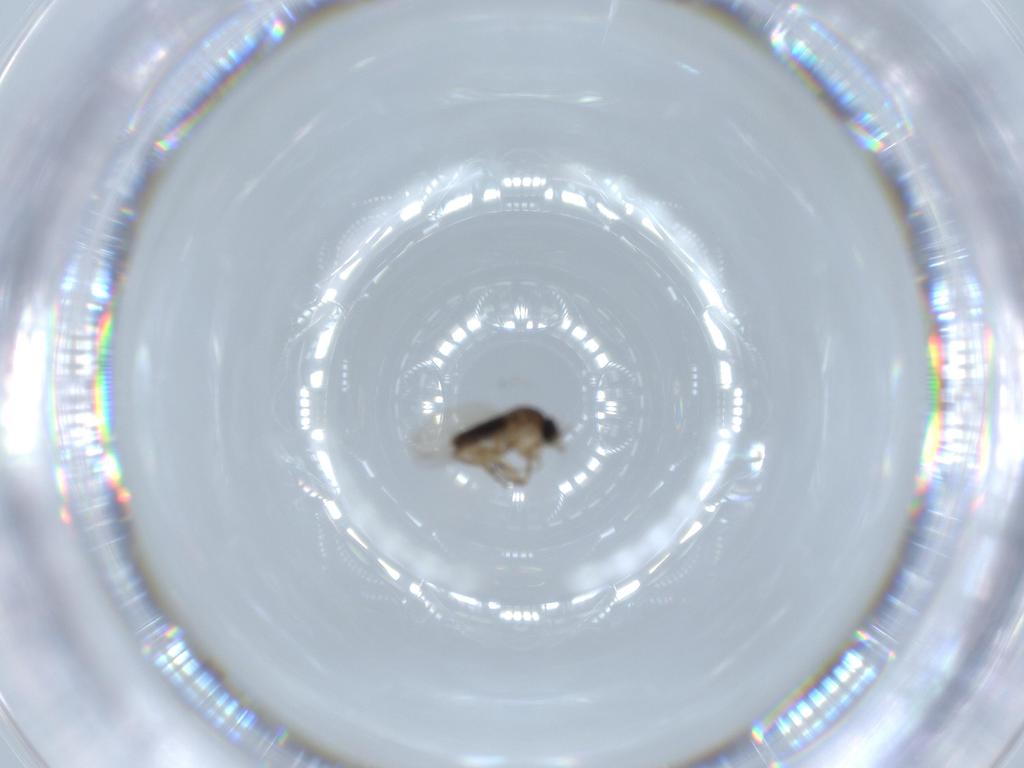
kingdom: Animalia
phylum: Arthropoda
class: Insecta
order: Diptera
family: Phoridae
